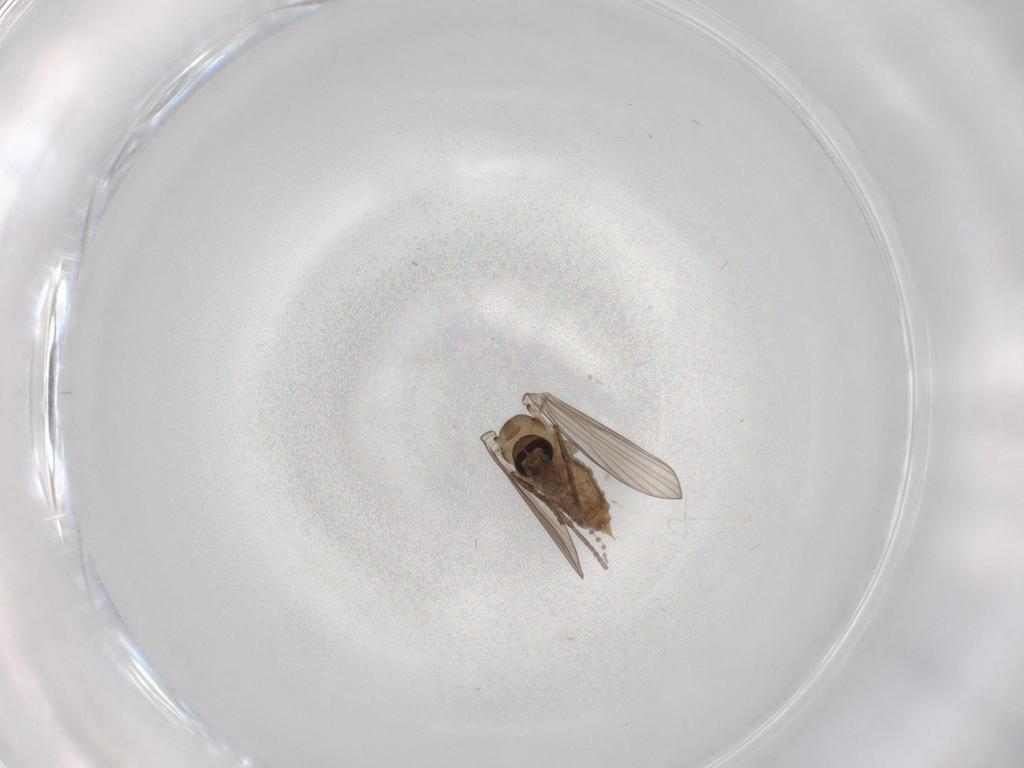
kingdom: Animalia
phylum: Arthropoda
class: Insecta
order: Diptera
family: Psychodidae
